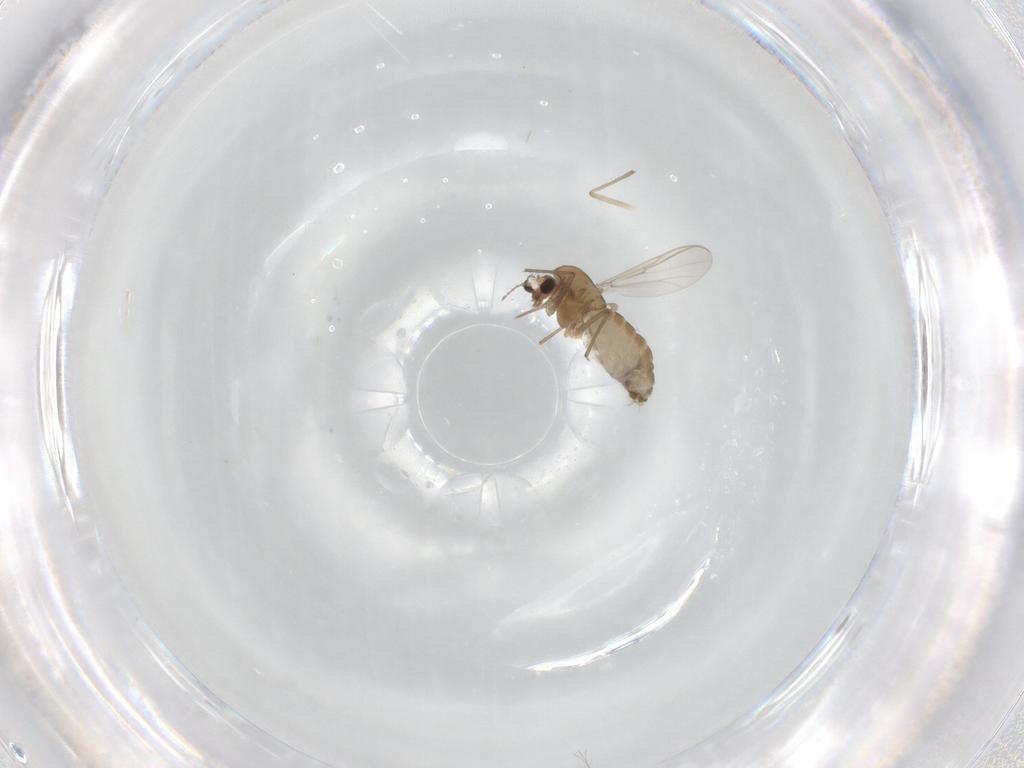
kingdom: Animalia
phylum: Arthropoda
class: Insecta
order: Diptera
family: Chironomidae
